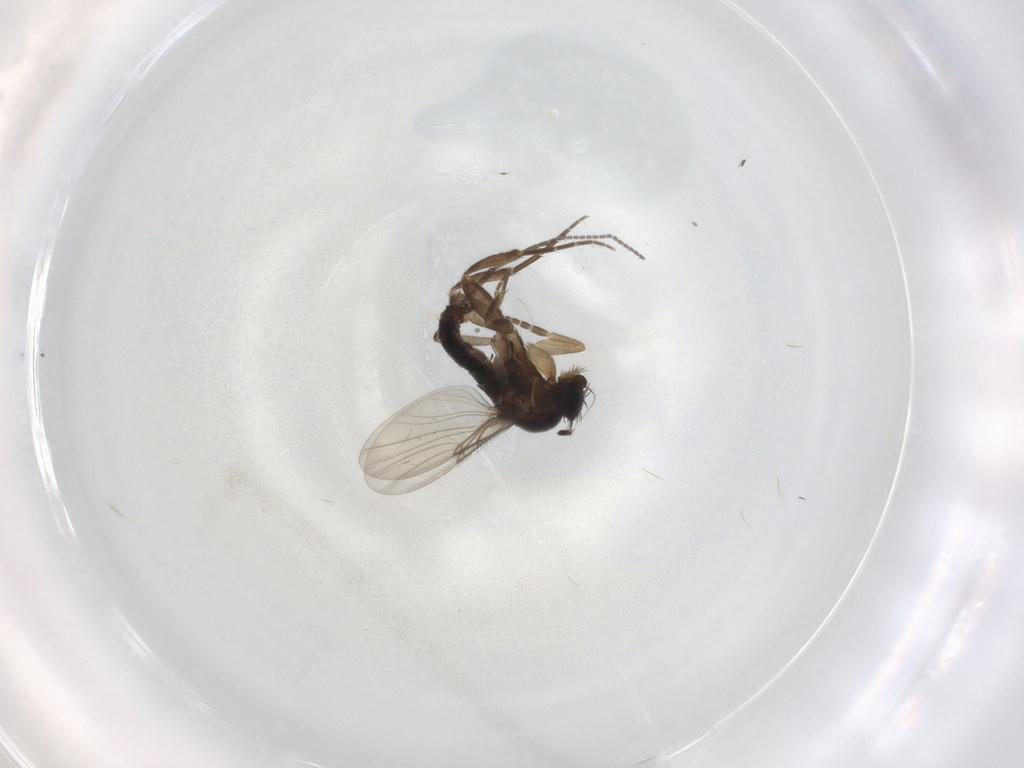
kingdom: Animalia
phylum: Arthropoda
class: Insecta
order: Diptera
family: Phoridae
